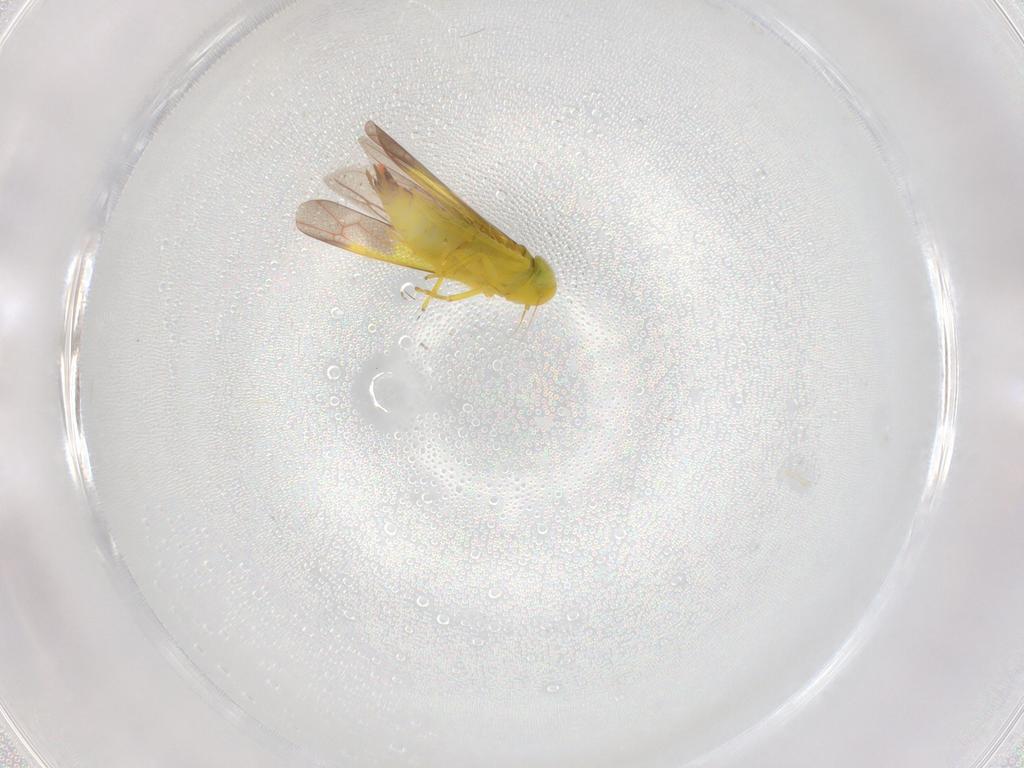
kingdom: Animalia
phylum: Arthropoda
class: Insecta
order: Hemiptera
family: Cicadellidae
